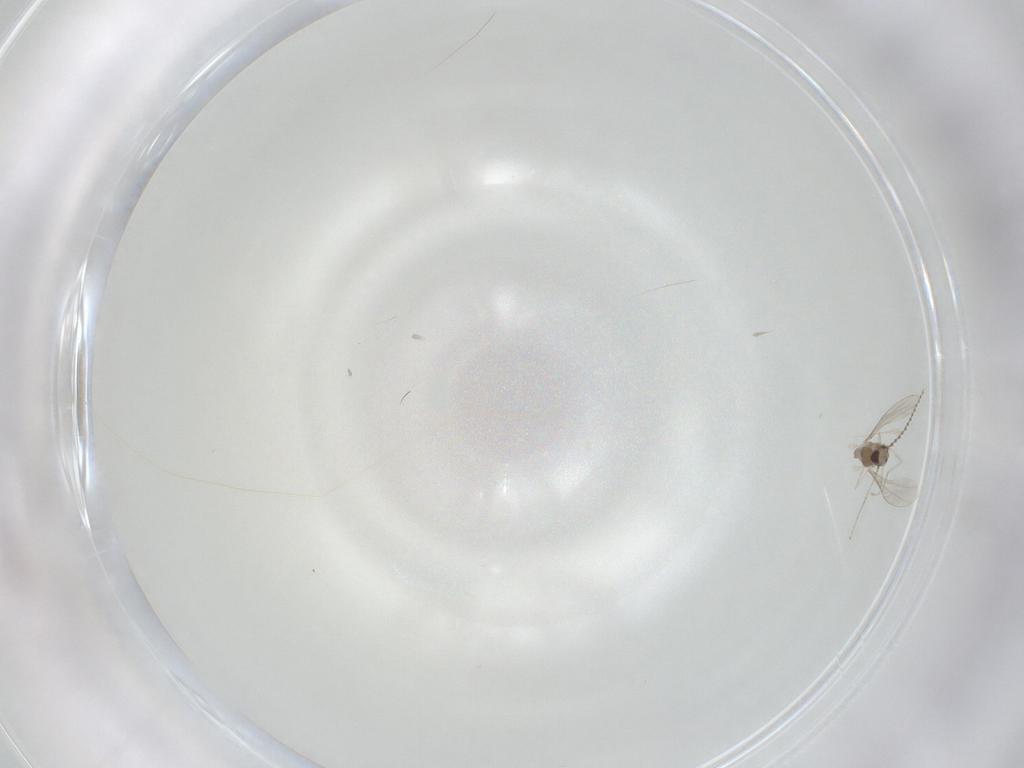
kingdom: Animalia
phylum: Arthropoda
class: Insecta
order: Diptera
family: Cecidomyiidae
